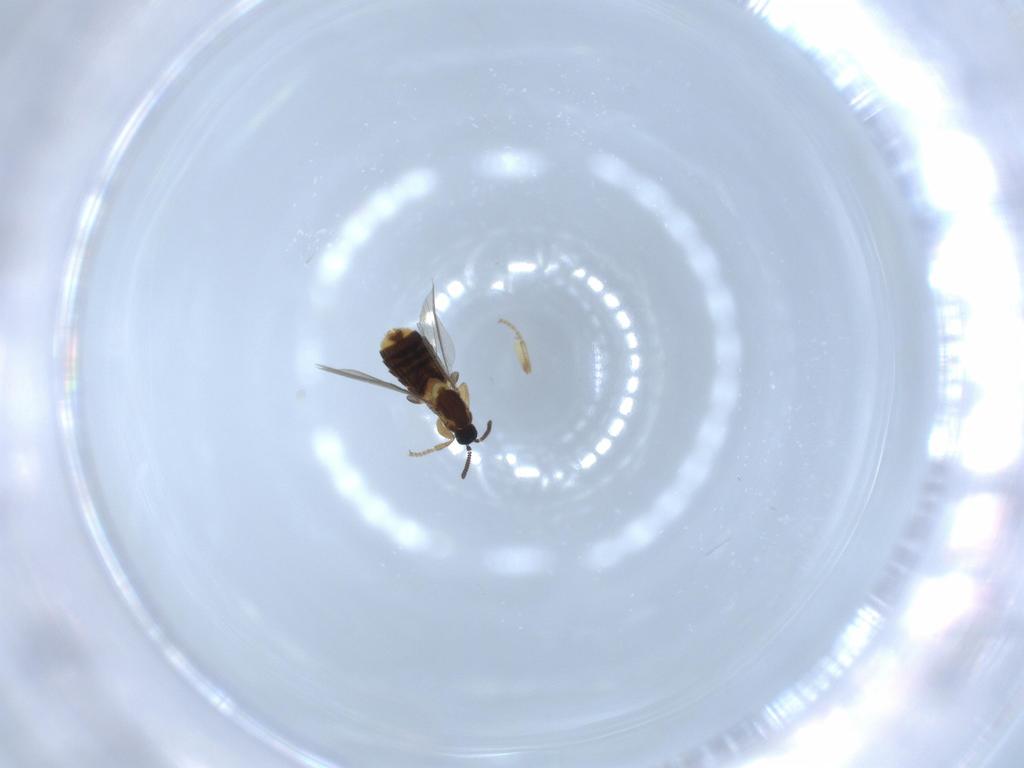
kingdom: Animalia
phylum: Arthropoda
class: Insecta
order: Diptera
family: Scatopsidae
